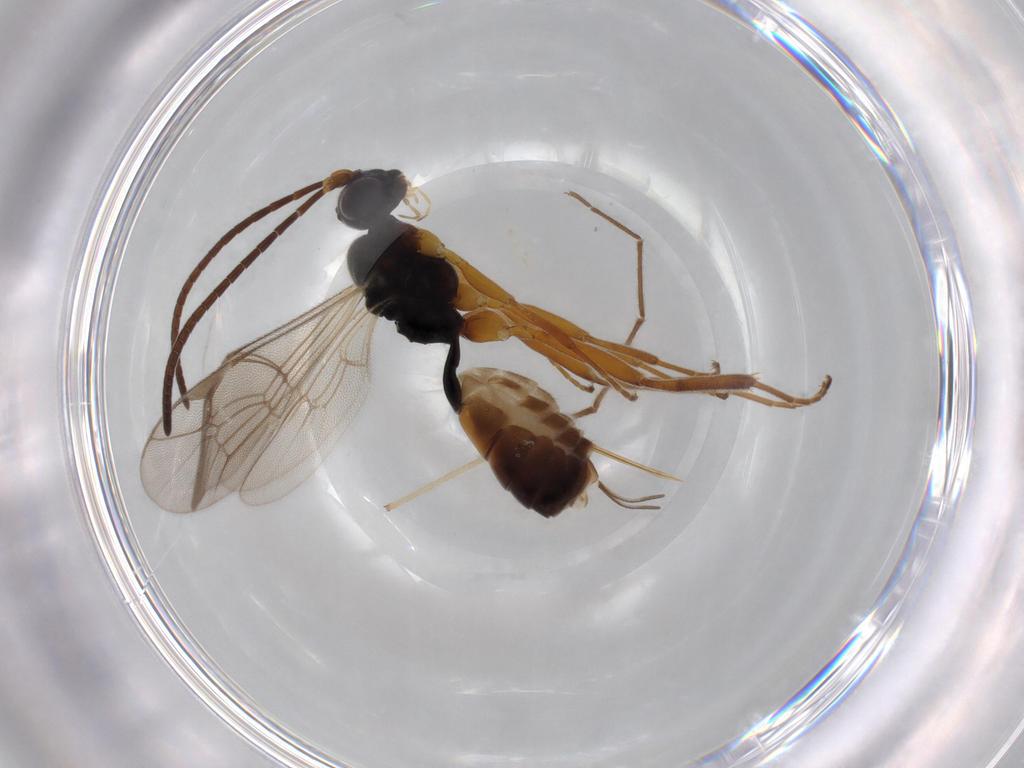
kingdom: Animalia
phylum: Arthropoda
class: Insecta
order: Hymenoptera
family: Ichneumonidae
